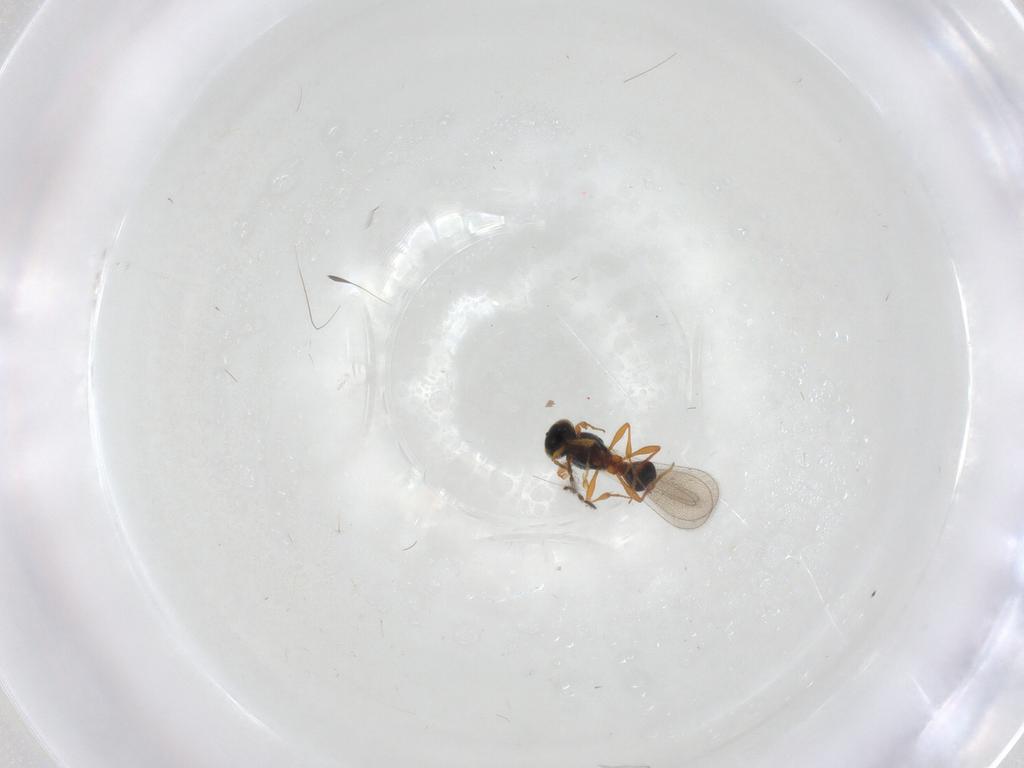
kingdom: Animalia
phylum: Arthropoda
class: Insecta
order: Hymenoptera
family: Platygastridae
